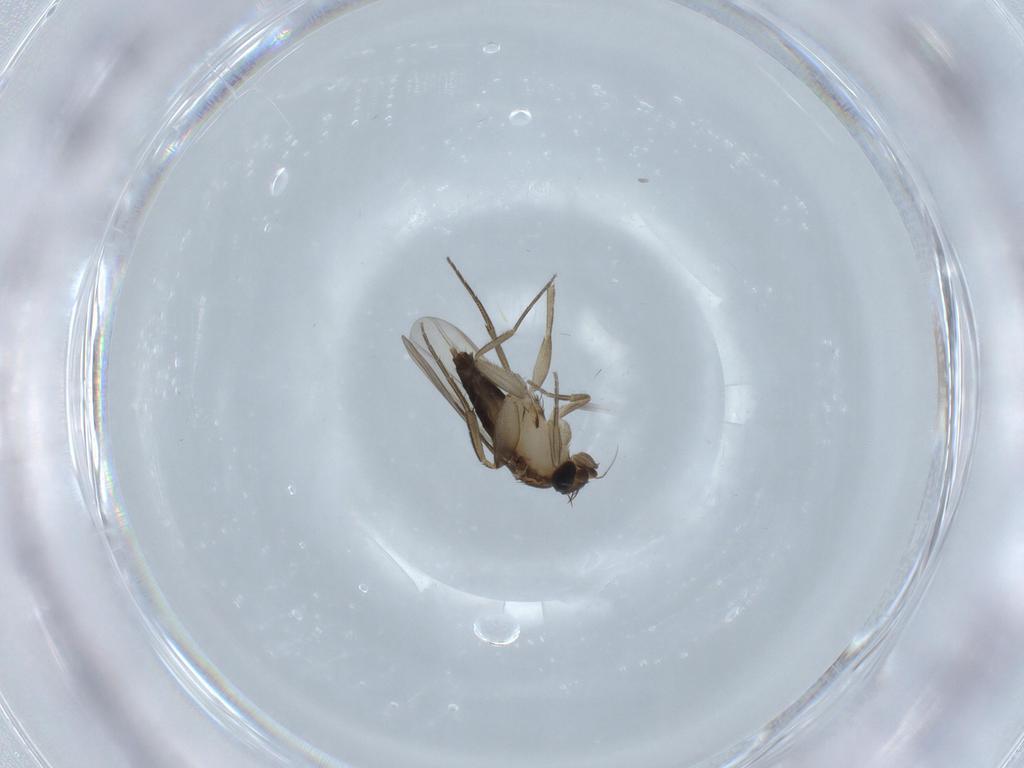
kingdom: Animalia
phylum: Arthropoda
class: Insecta
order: Diptera
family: Phoridae
